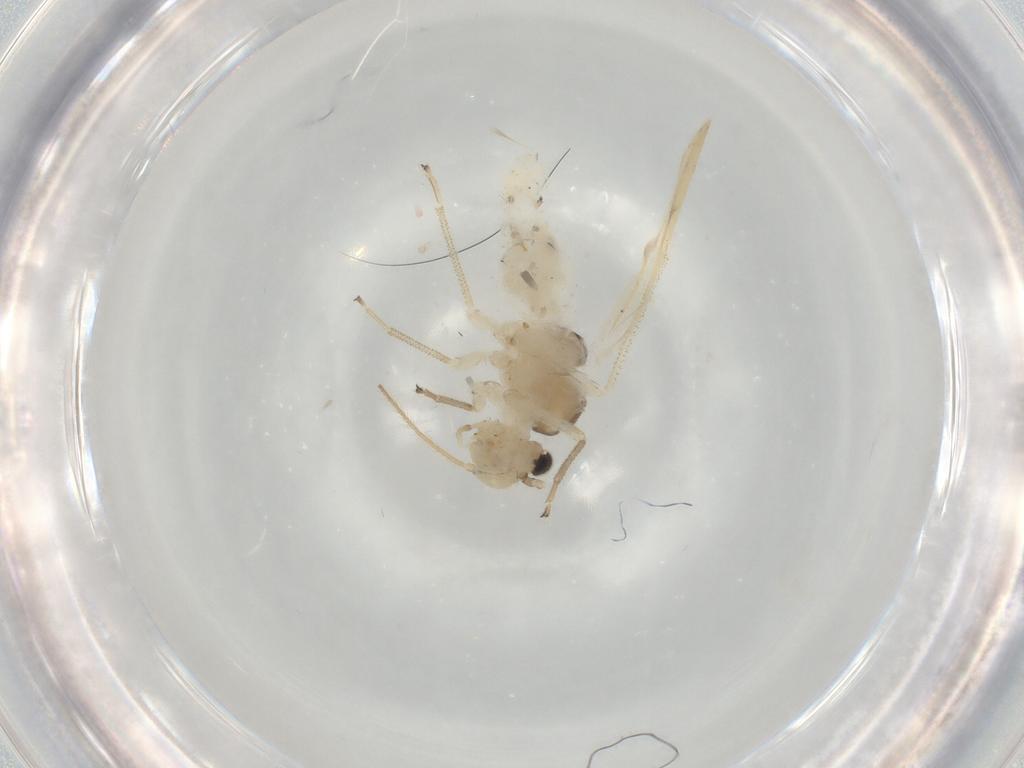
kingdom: Animalia
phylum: Arthropoda
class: Insecta
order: Psocodea
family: Caeciliusidae
